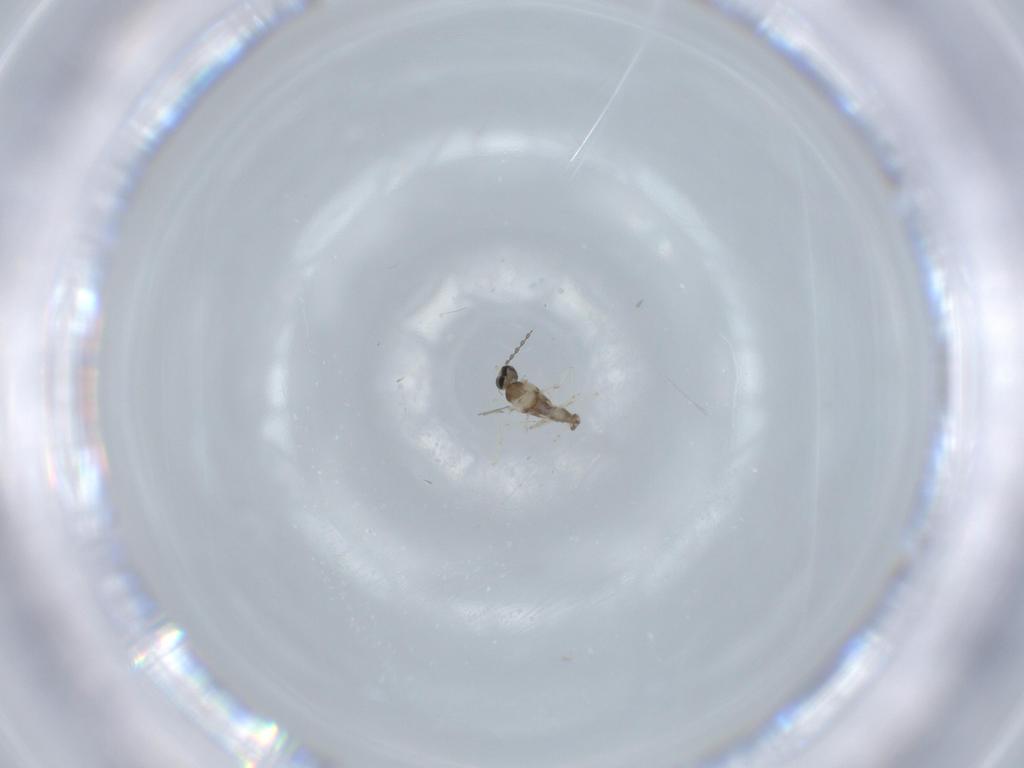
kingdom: Animalia
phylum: Arthropoda
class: Insecta
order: Diptera
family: Cecidomyiidae
